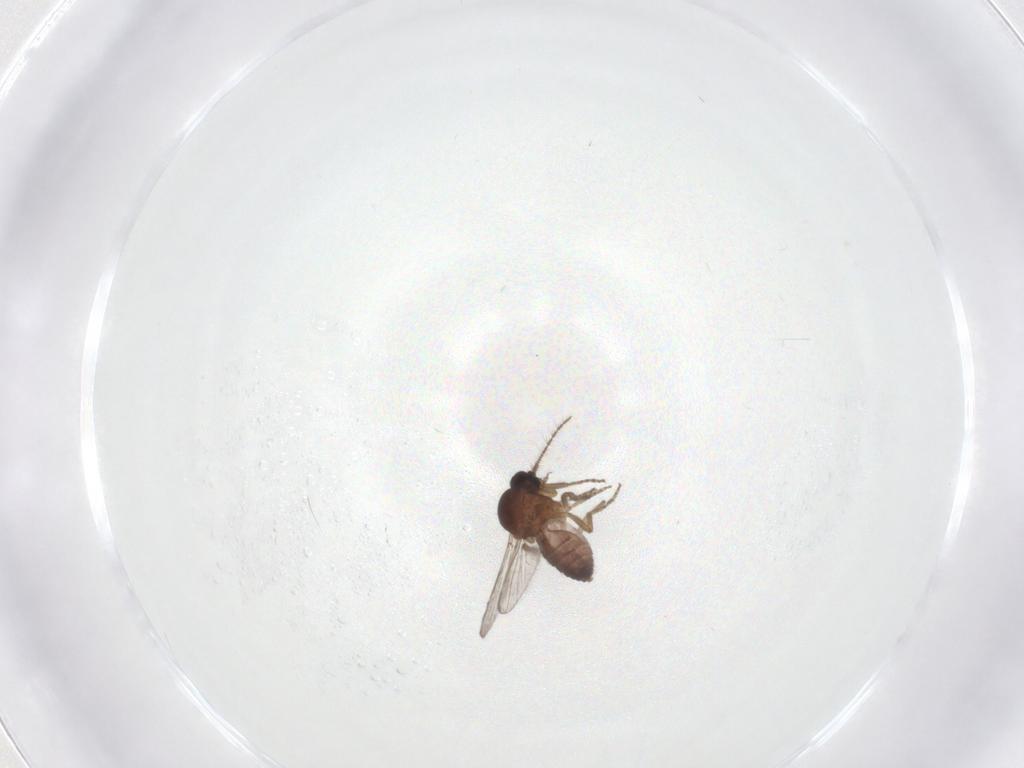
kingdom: Animalia
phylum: Arthropoda
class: Insecta
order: Diptera
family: Ceratopogonidae
